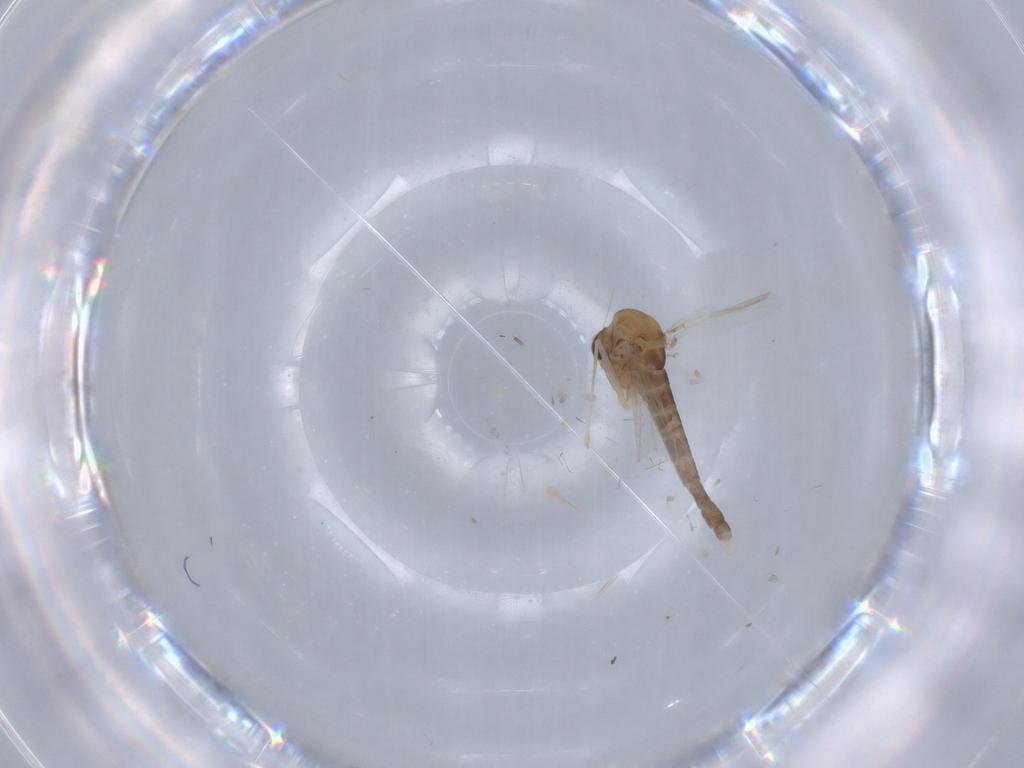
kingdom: Animalia
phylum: Arthropoda
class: Insecta
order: Diptera
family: Chironomidae
